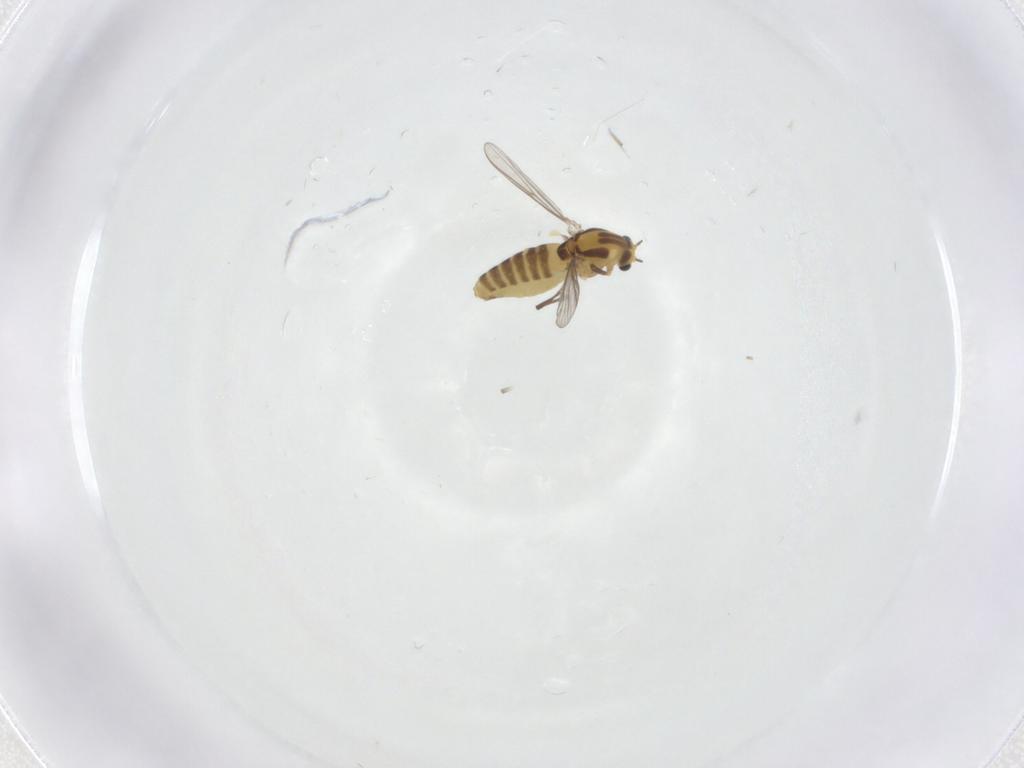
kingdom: Animalia
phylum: Arthropoda
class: Insecta
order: Diptera
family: Chironomidae
